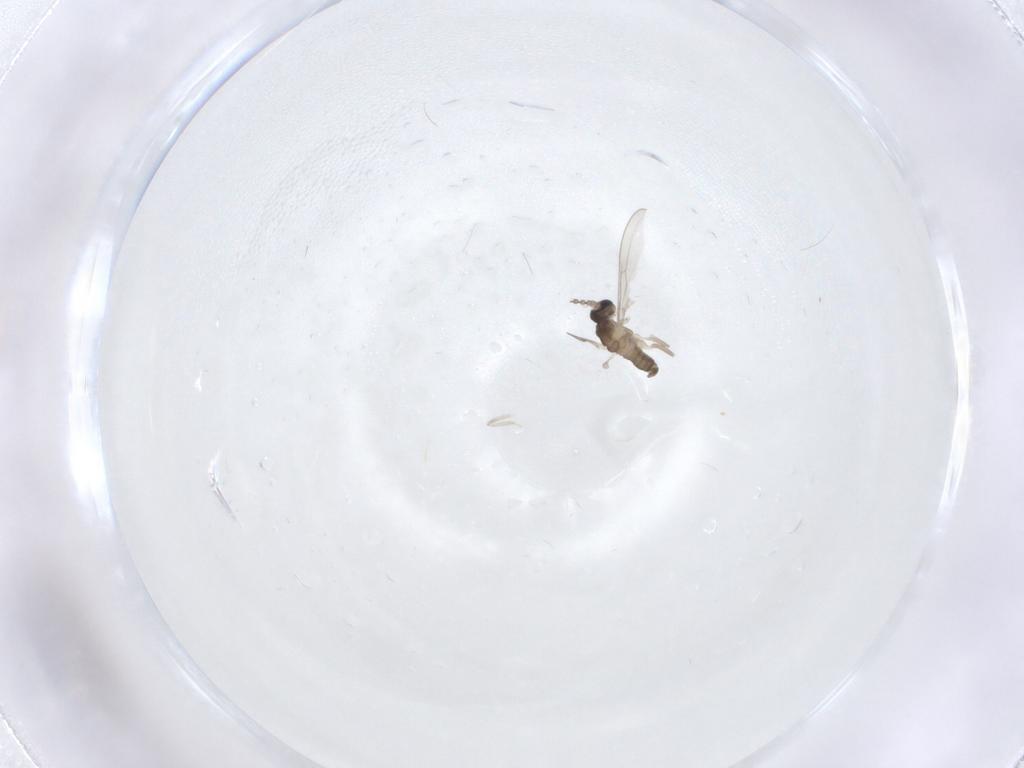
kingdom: Animalia
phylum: Arthropoda
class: Insecta
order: Diptera
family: Cecidomyiidae
